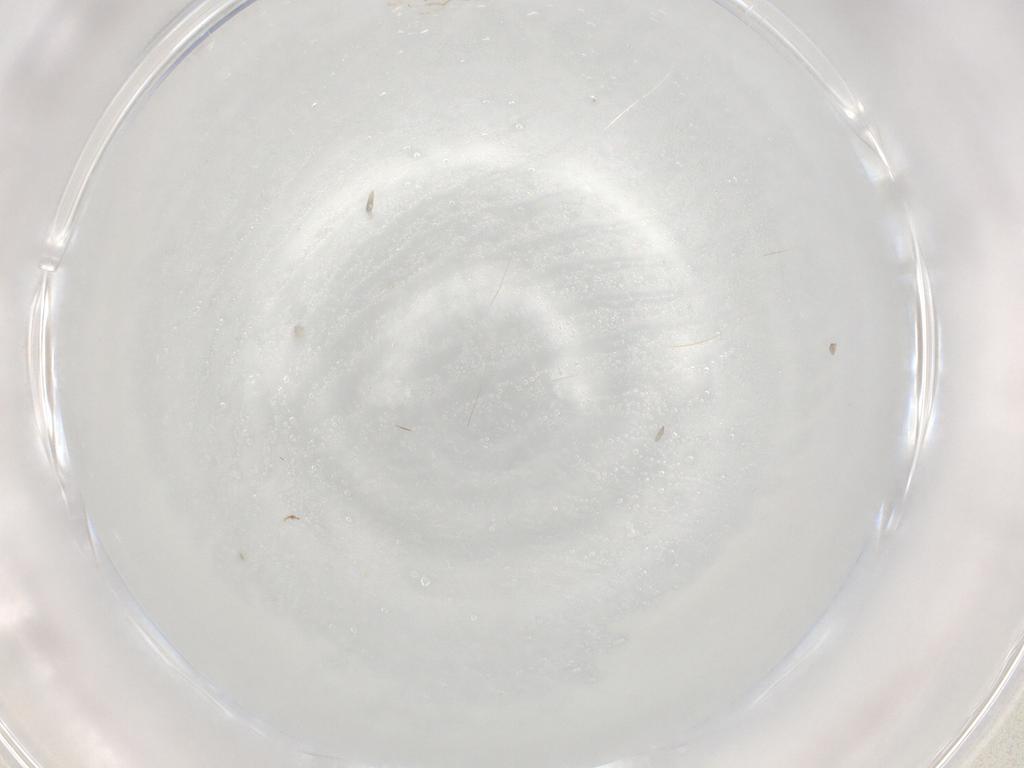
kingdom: Animalia
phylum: Arthropoda
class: Insecta
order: Diptera
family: Cecidomyiidae
